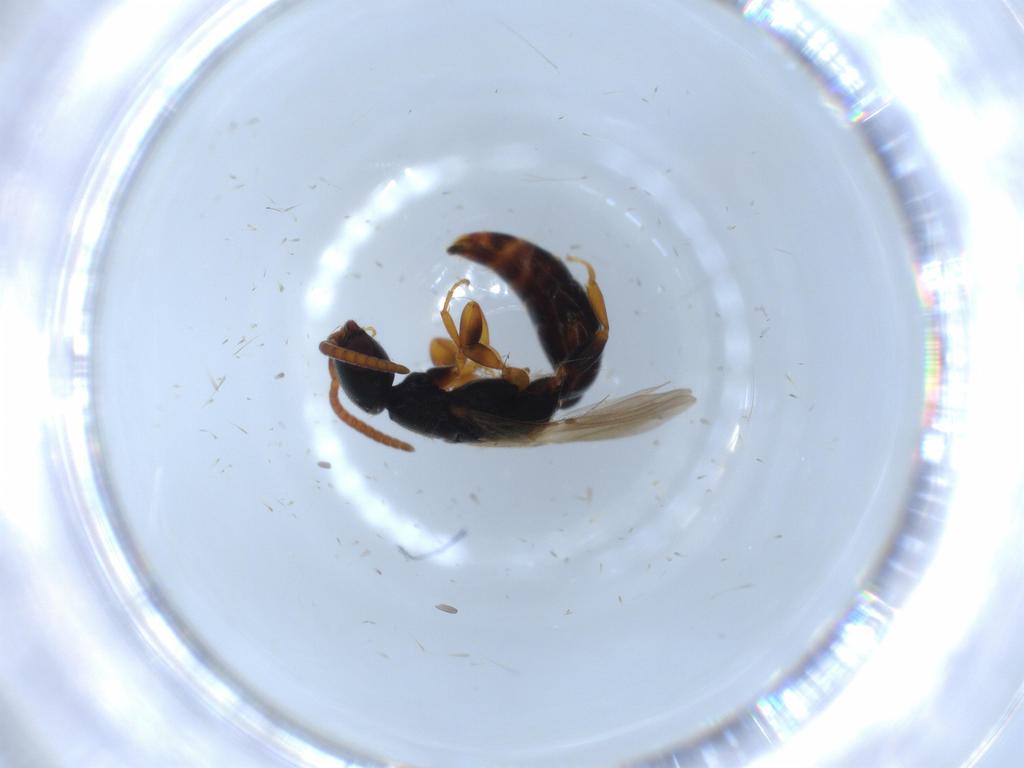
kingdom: Animalia
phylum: Arthropoda
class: Insecta
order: Hymenoptera
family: Bethylidae
